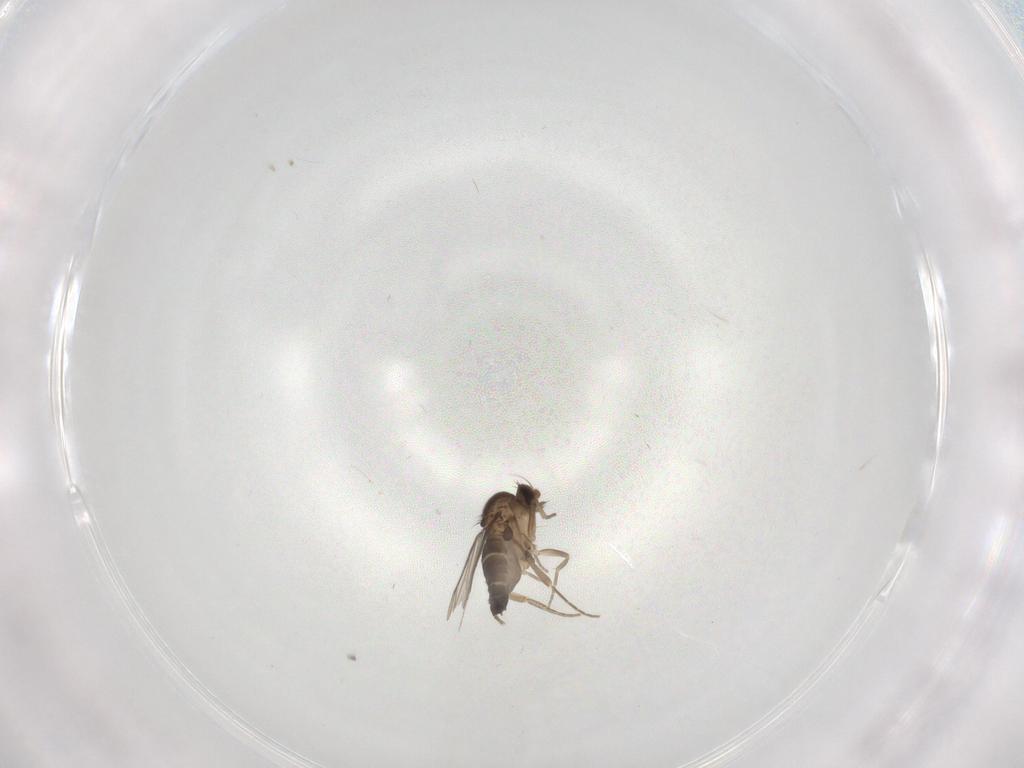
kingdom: Animalia
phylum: Arthropoda
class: Insecta
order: Diptera
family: Phoridae
